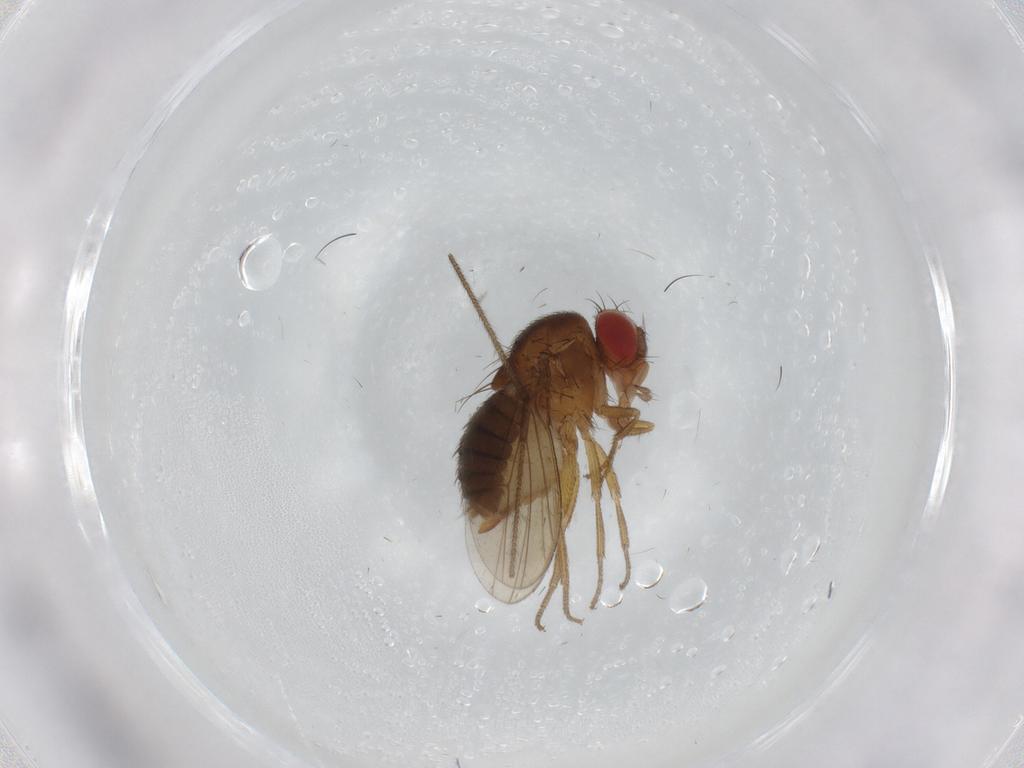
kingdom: Animalia
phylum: Arthropoda
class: Insecta
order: Diptera
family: Drosophilidae
